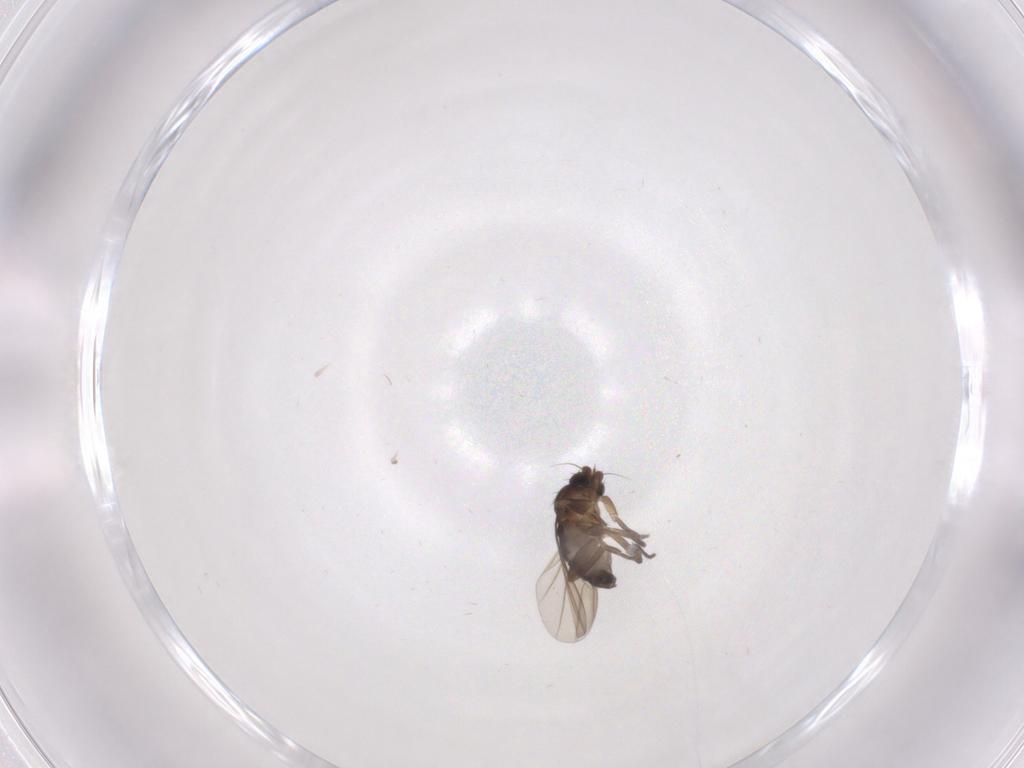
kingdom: Animalia
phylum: Arthropoda
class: Insecta
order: Diptera
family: Phoridae
